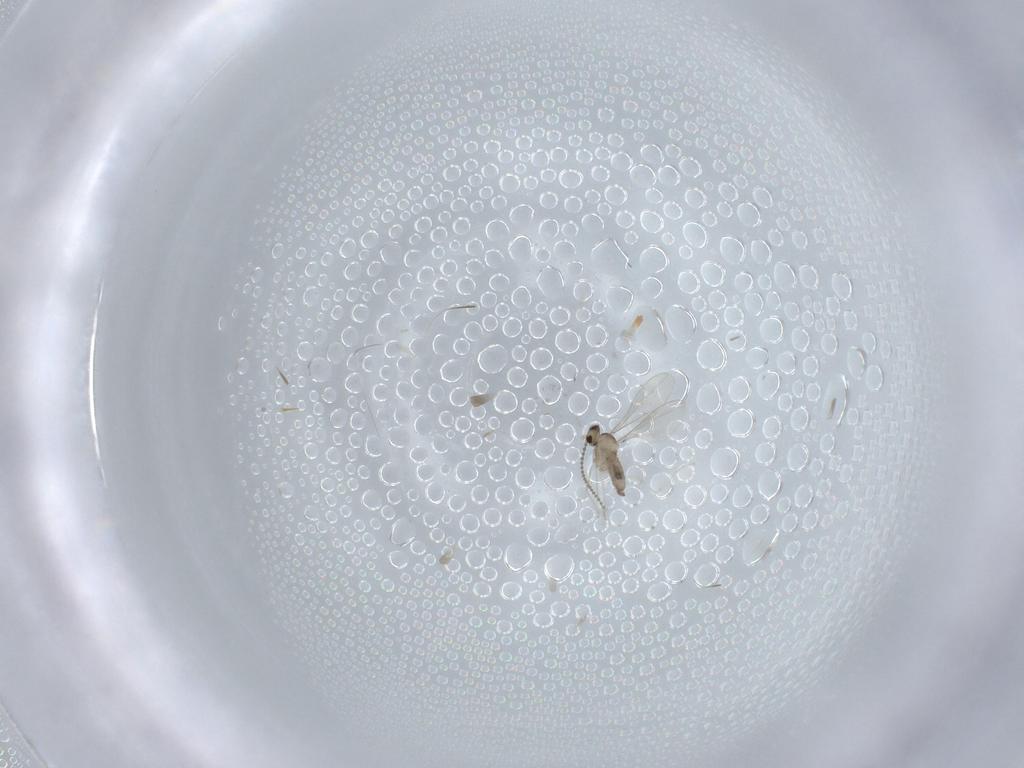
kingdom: Animalia
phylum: Arthropoda
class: Insecta
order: Diptera
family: Cecidomyiidae
